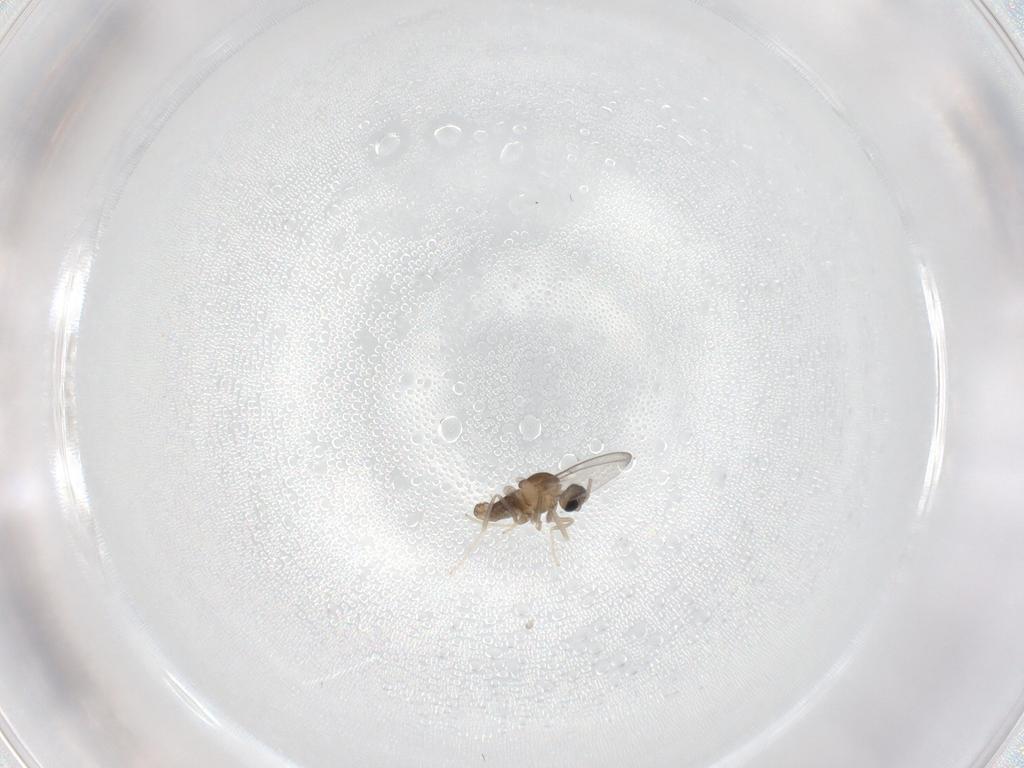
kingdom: Animalia
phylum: Arthropoda
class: Insecta
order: Diptera
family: Cecidomyiidae
